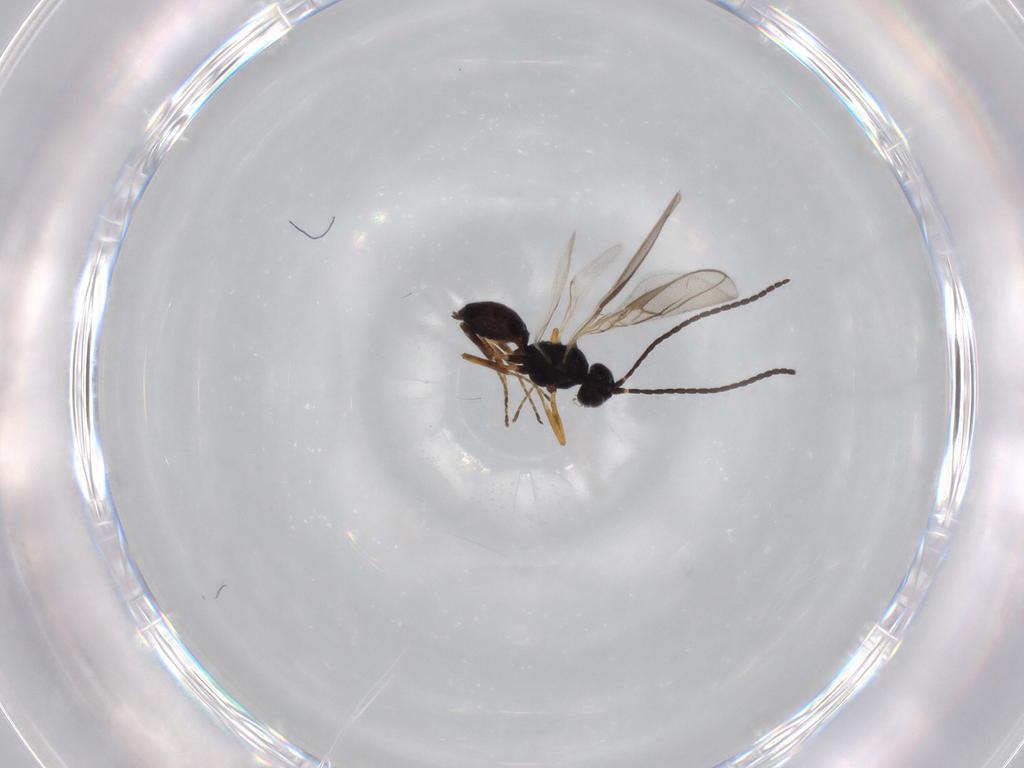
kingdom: Animalia
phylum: Arthropoda
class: Insecta
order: Hymenoptera
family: Braconidae
